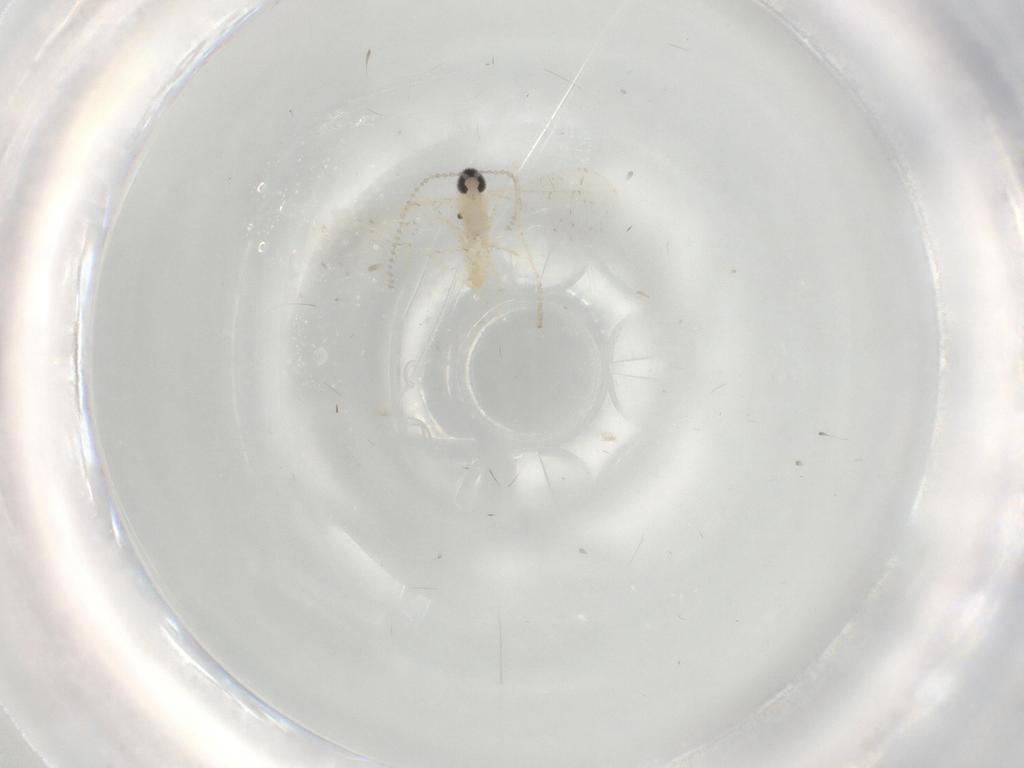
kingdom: Animalia
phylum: Arthropoda
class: Insecta
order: Diptera
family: Cecidomyiidae
